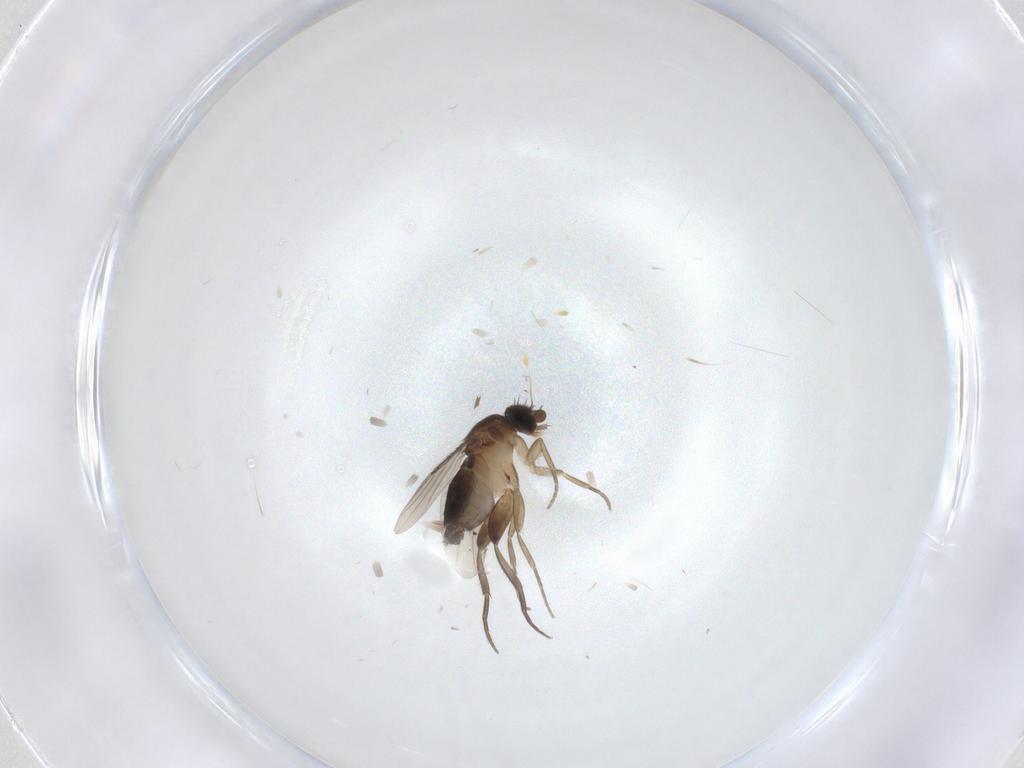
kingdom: Animalia
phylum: Arthropoda
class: Insecta
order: Diptera
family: Phoridae
